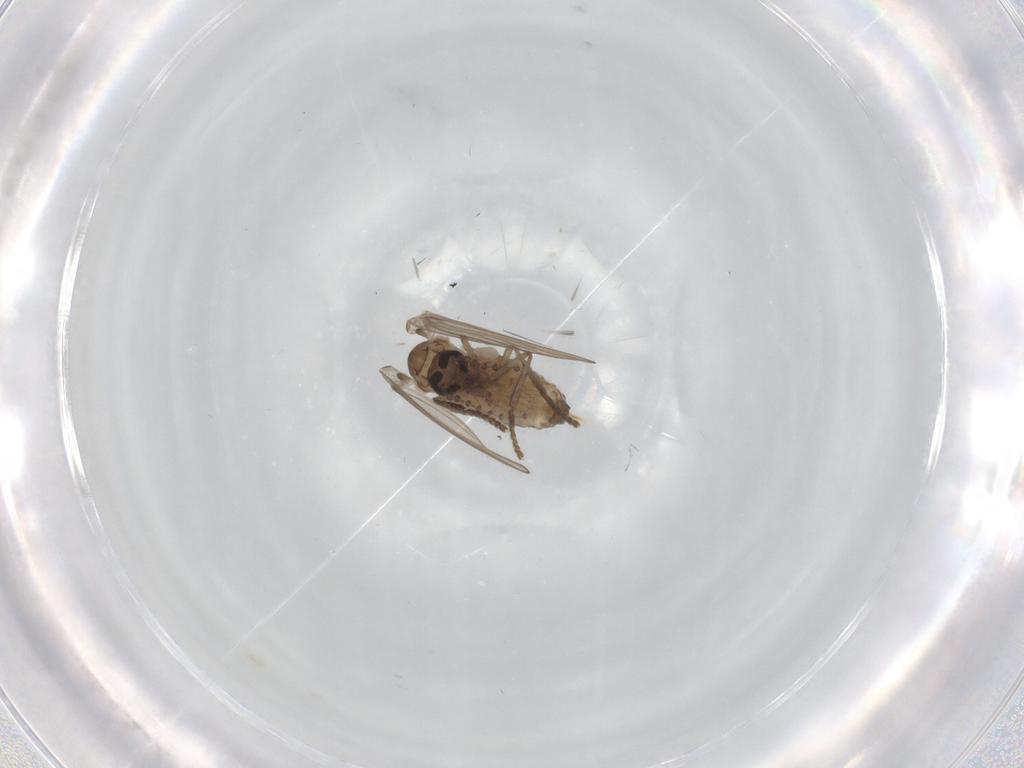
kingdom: Animalia
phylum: Arthropoda
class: Insecta
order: Diptera
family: Psychodidae
